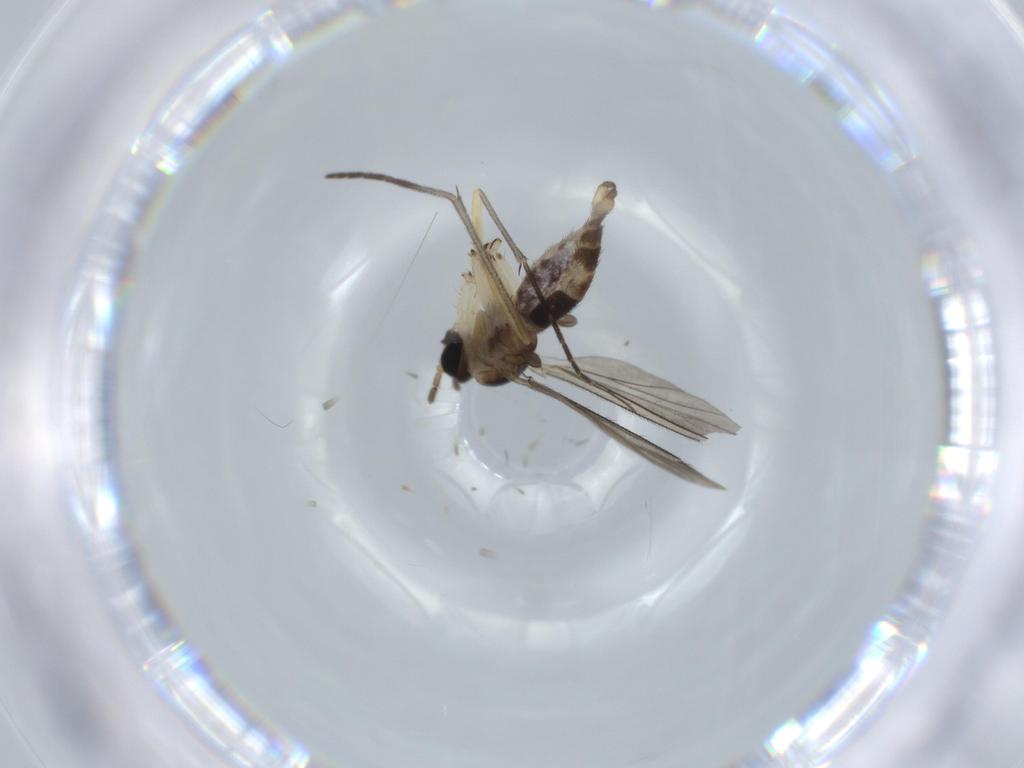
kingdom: Animalia
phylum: Arthropoda
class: Insecta
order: Diptera
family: Sciaridae
